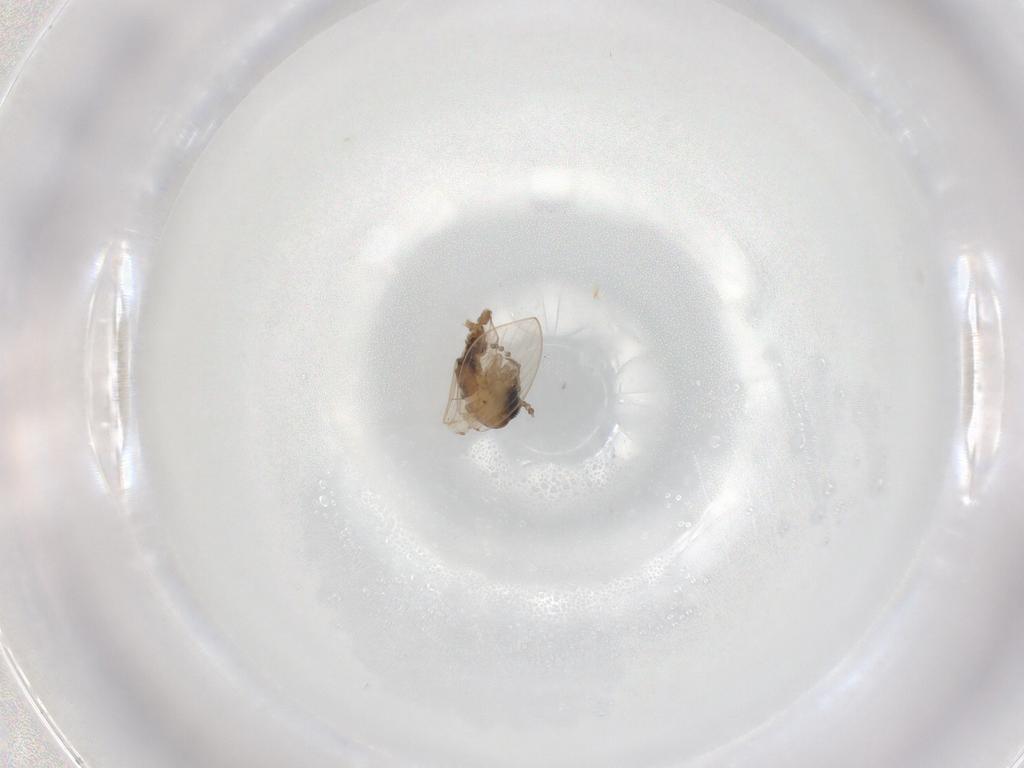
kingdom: Animalia
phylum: Arthropoda
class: Insecta
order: Diptera
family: Psychodidae
